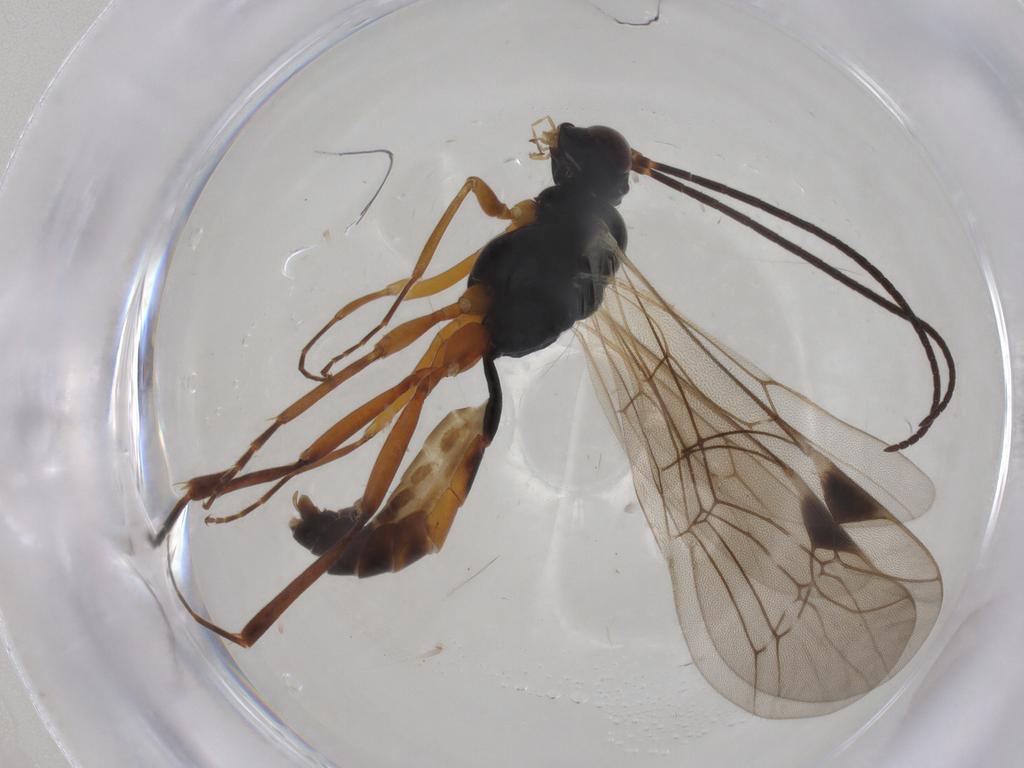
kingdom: Animalia
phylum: Arthropoda
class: Insecta
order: Hymenoptera
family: Ichneumonidae
